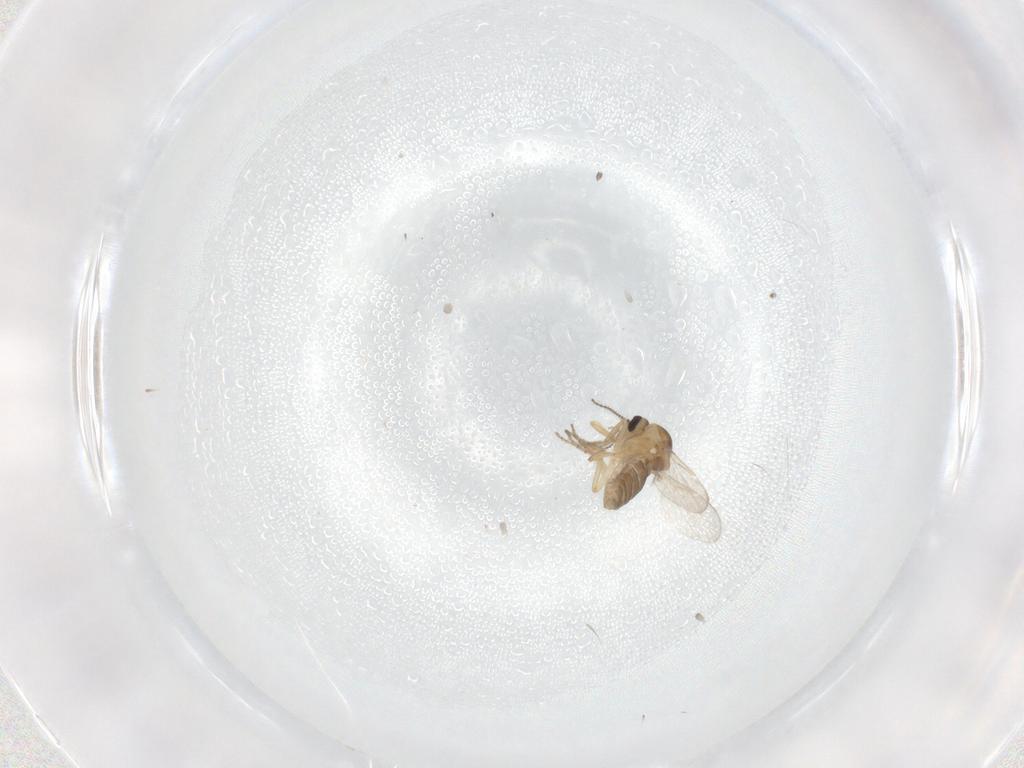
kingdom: Animalia
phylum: Arthropoda
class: Insecta
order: Diptera
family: Ceratopogonidae
